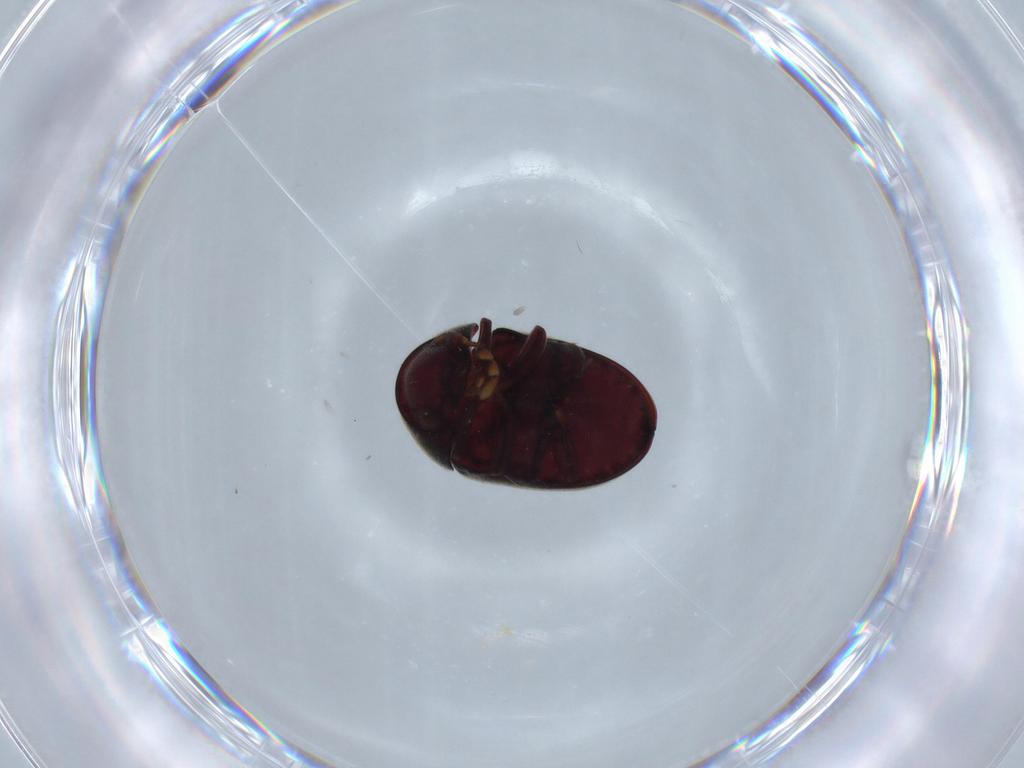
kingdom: Animalia
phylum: Arthropoda
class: Insecta
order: Coleoptera
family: Ptinidae
